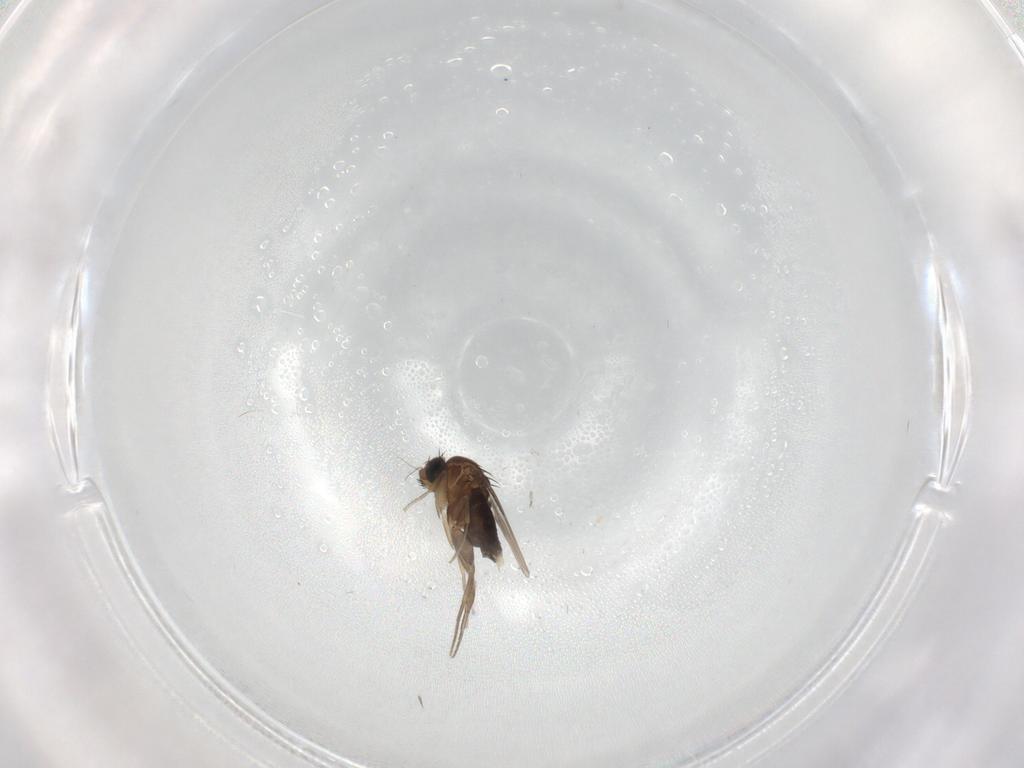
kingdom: Animalia
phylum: Arthropoda
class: Insecta
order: Diptera
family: Phoridae
